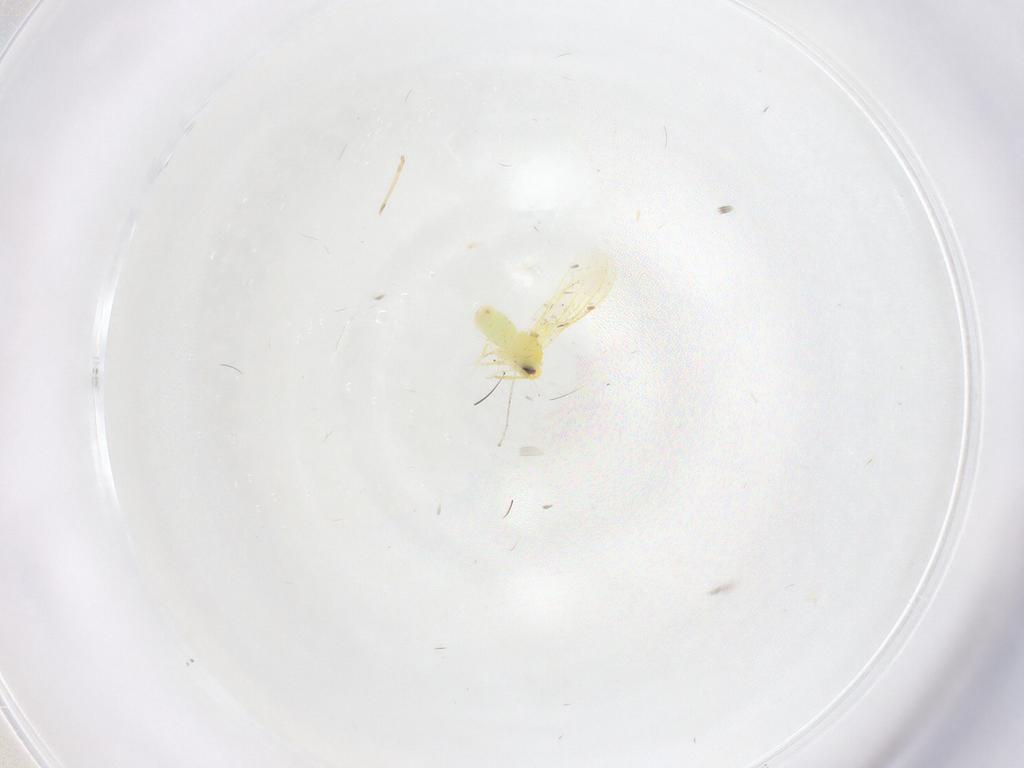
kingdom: Animalia
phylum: Arthropoda
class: Insecta
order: Hemiptera
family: Aleyrodidae
